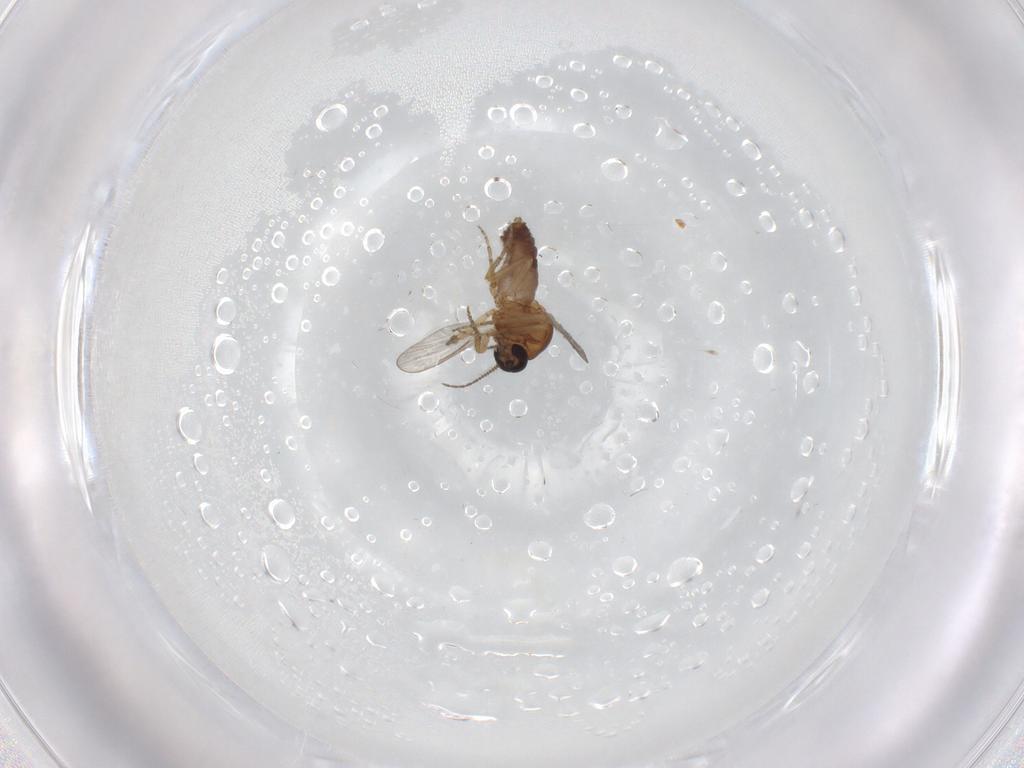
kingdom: Animalia
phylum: Arthropoda
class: Insecta
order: Diptera
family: Ceratopogonidae
